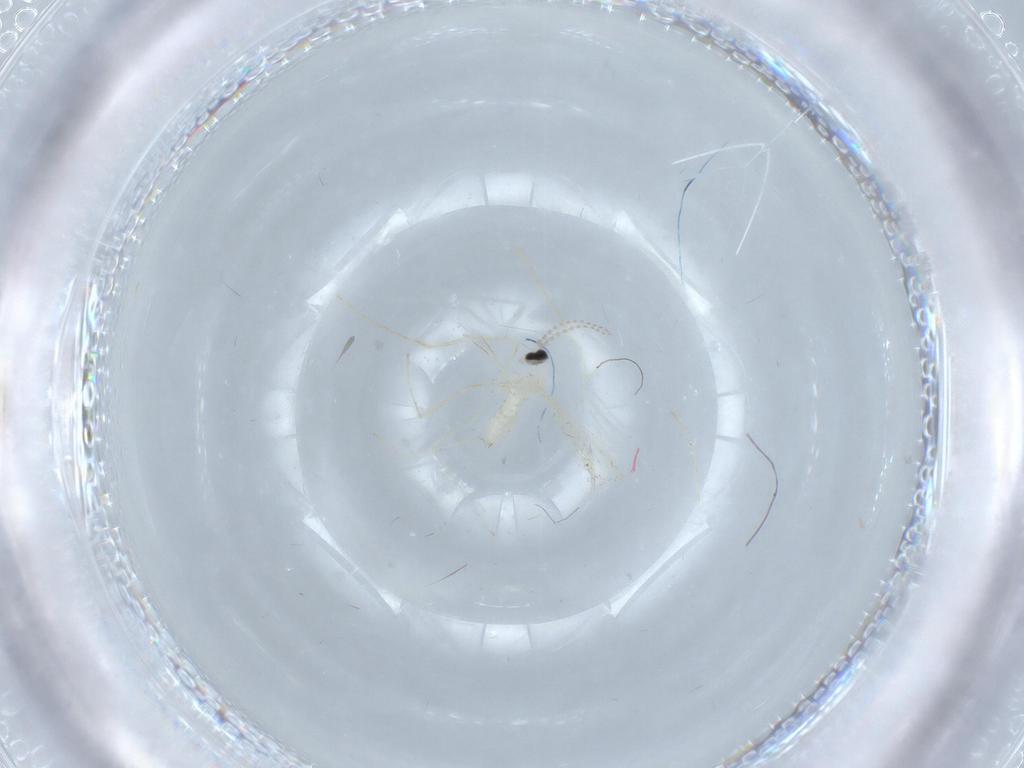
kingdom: Animalia
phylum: Arthropoda
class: Insecta
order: Diptera
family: Cecidomyiidae
